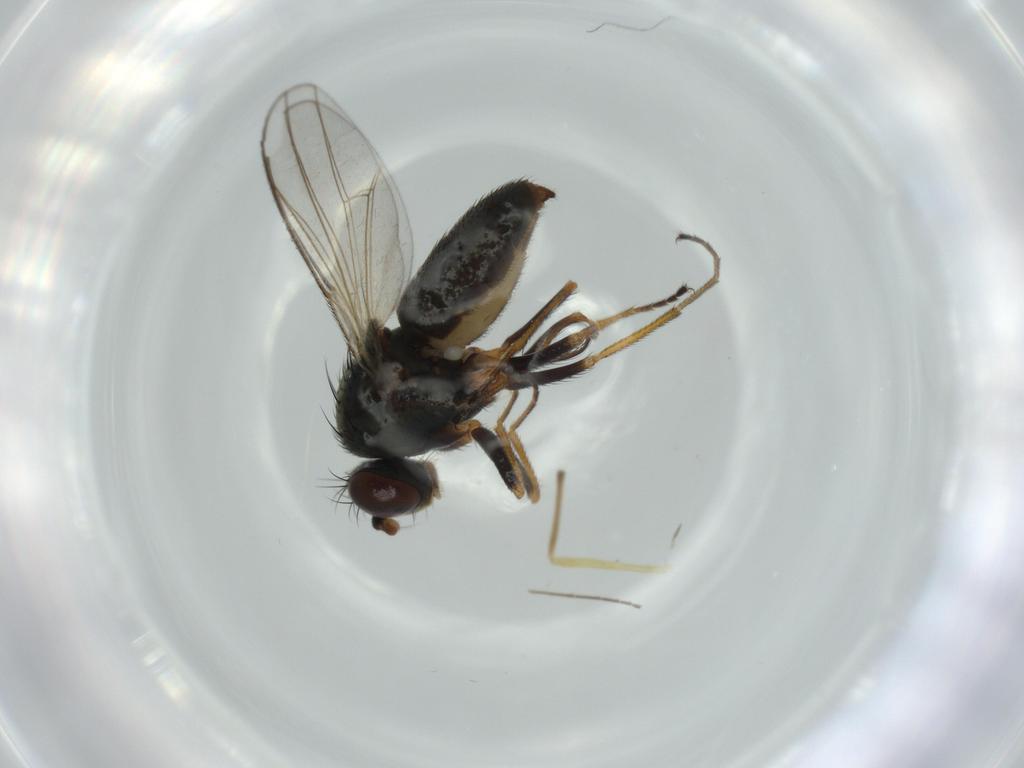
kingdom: Animalia
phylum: Arthropoda
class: Insecta
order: Diptera
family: Ephydridae
